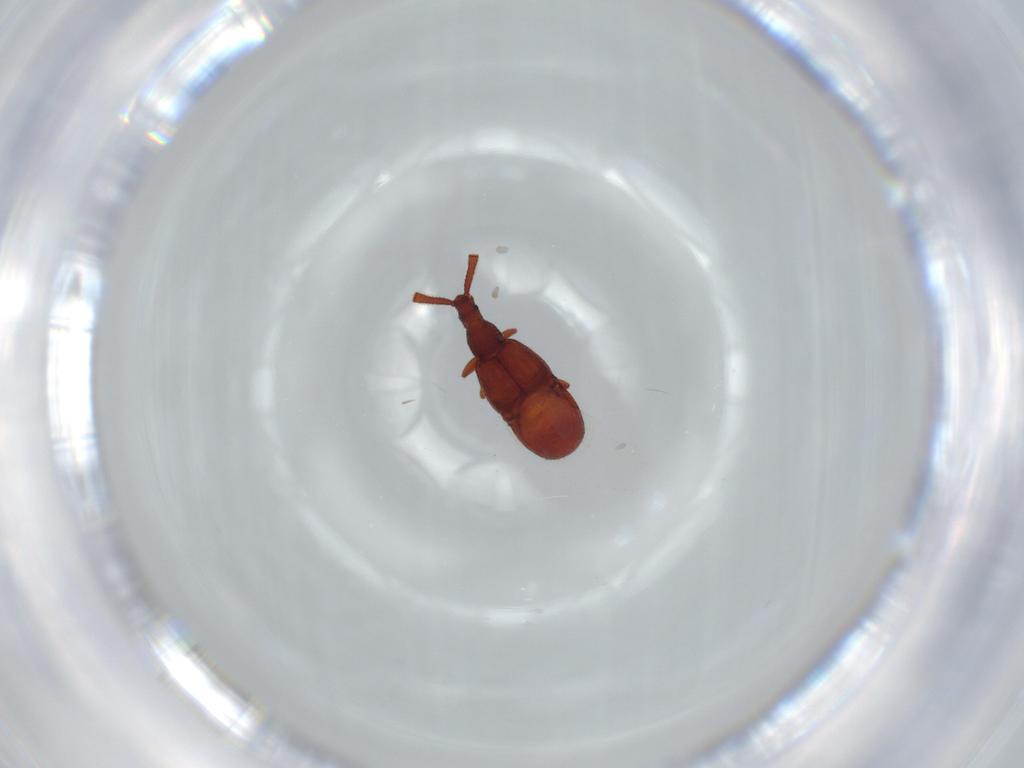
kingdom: Animalia
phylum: Arthropoda
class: Insecta
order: Coleoptera
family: Staphylinidae
